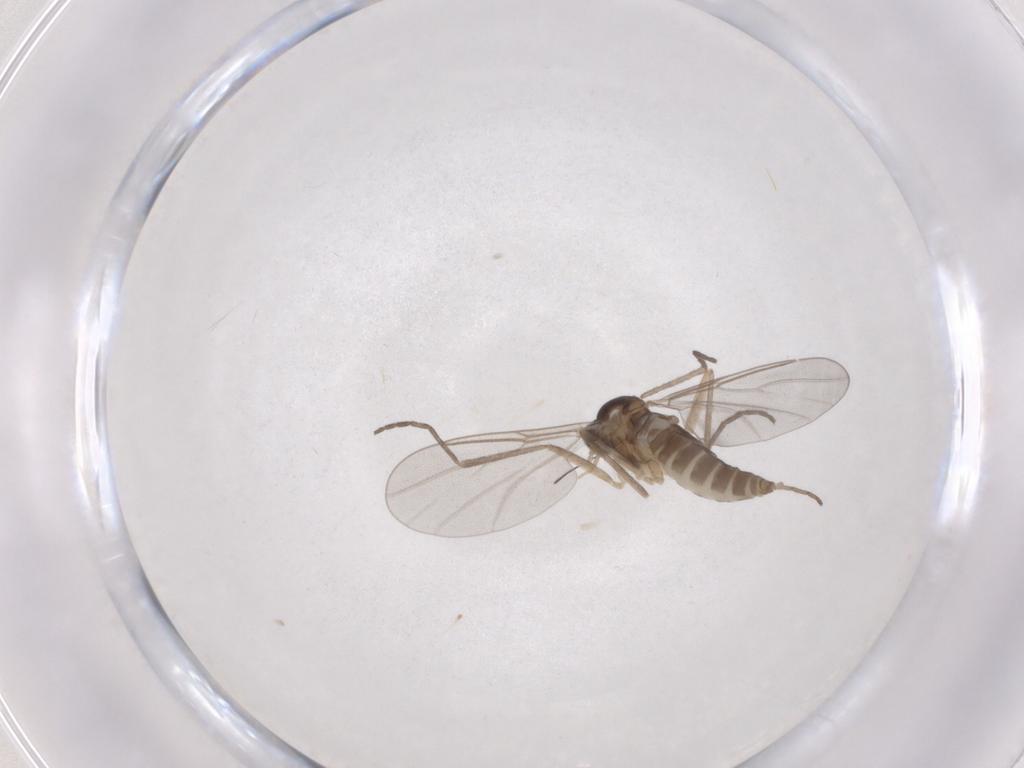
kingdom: Animalia
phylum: Arthropoda
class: Insecta
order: Diptera
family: Cecidomyiidae
